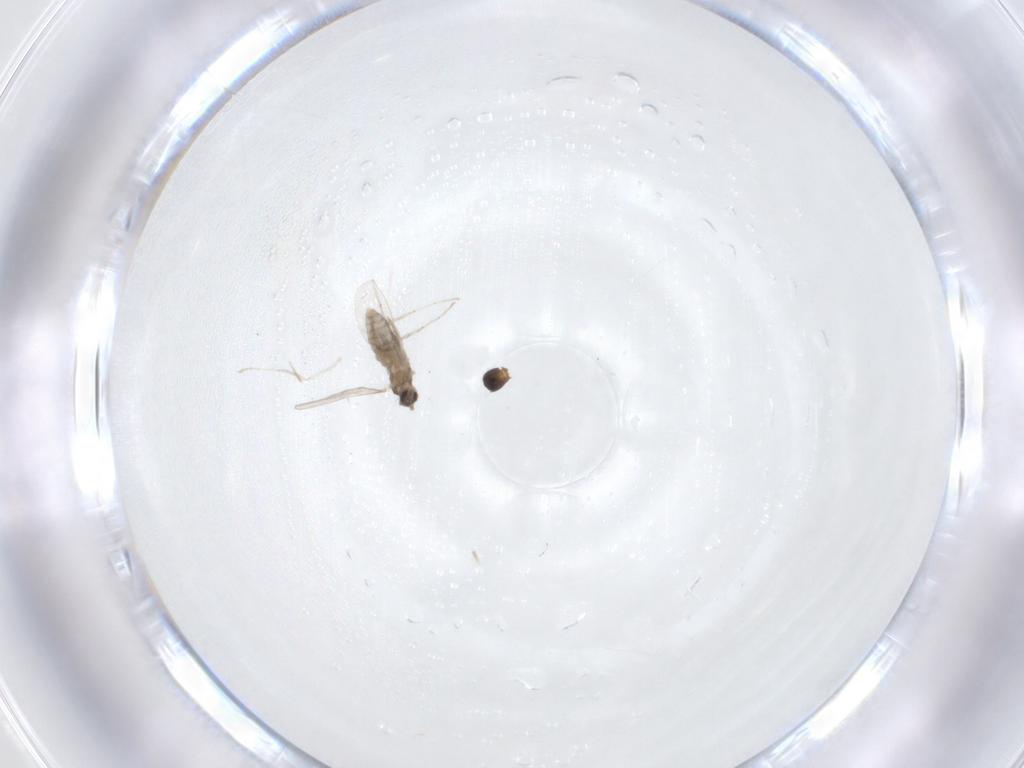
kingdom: Animalia
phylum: Arthropoda
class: Insecta
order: Diptera
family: Cecidomyiidae
